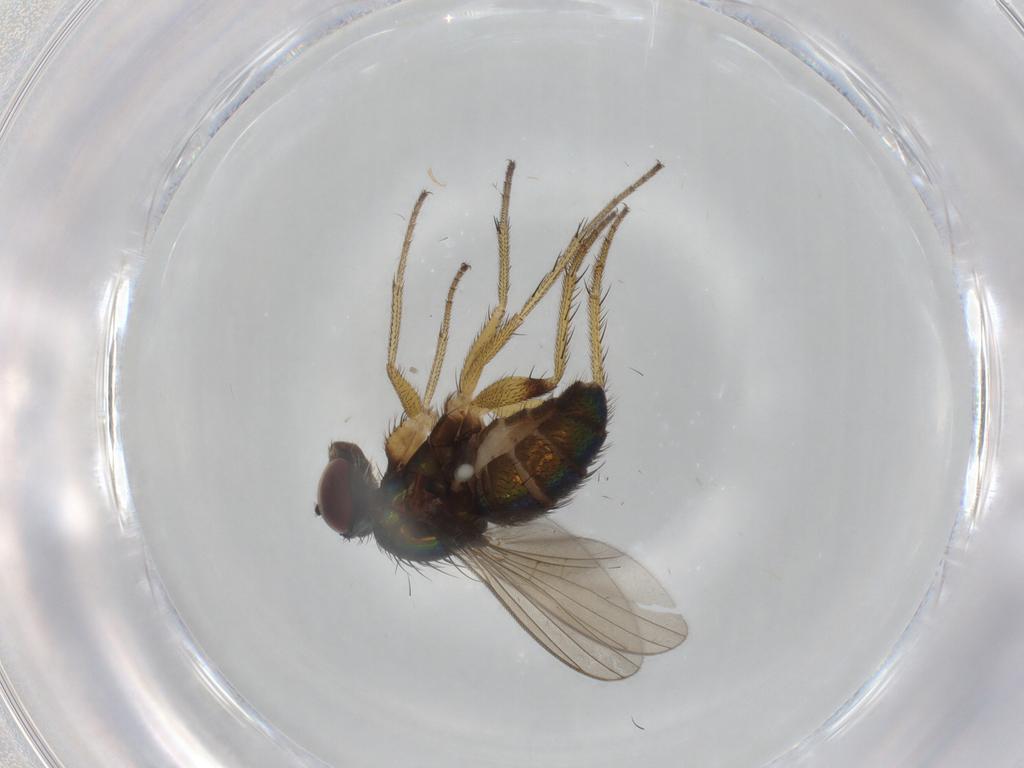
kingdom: Animalia
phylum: Arthropoda
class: Insecta
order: Diptera
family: Dolichopodidae
